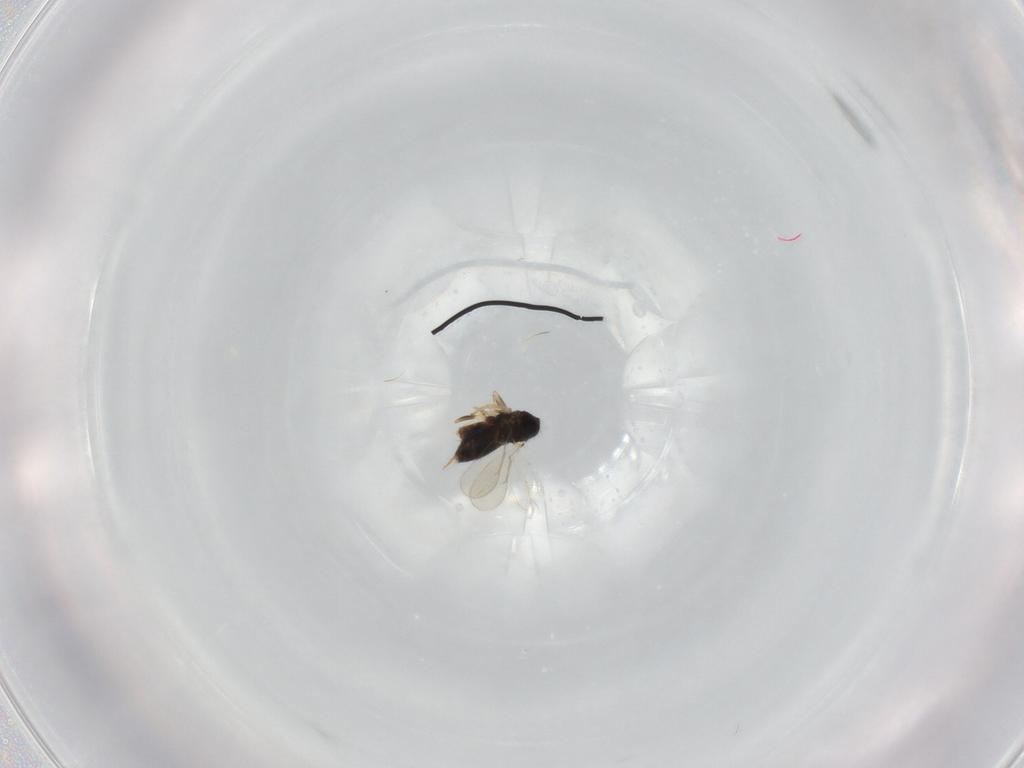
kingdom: Animalia
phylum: Arthropoda
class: Insecta
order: Hymenoptera
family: Aphelinidae
